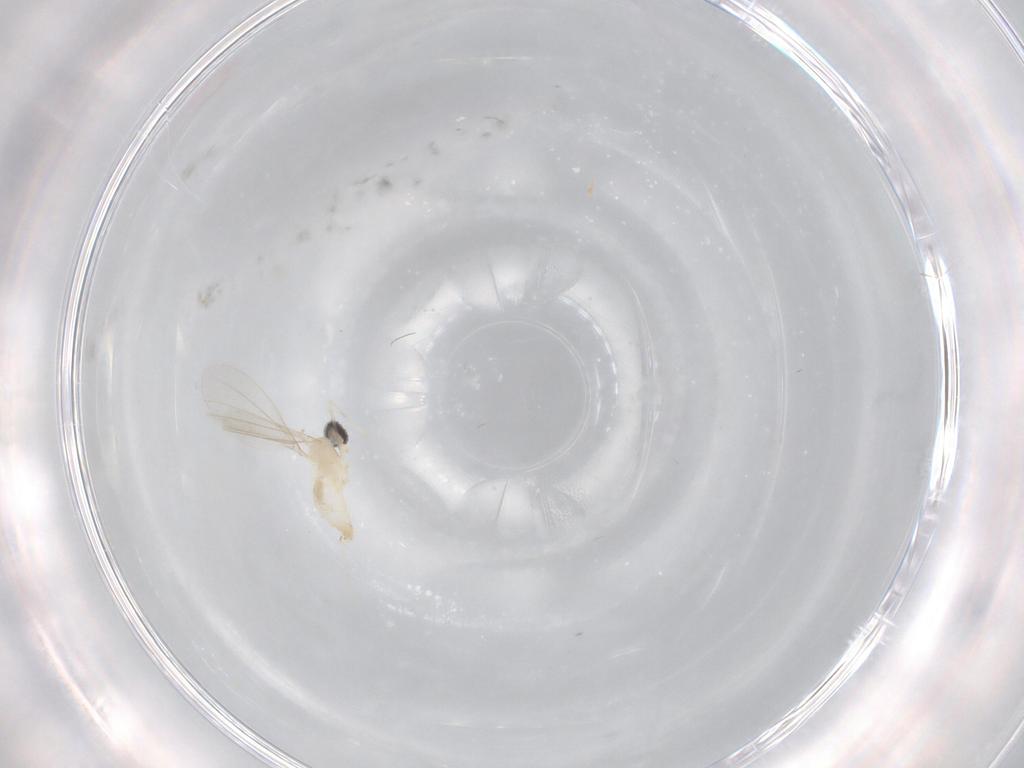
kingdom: Animalia
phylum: Arthropoda
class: Insecta
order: Diptera
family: Cecidomyiidae
